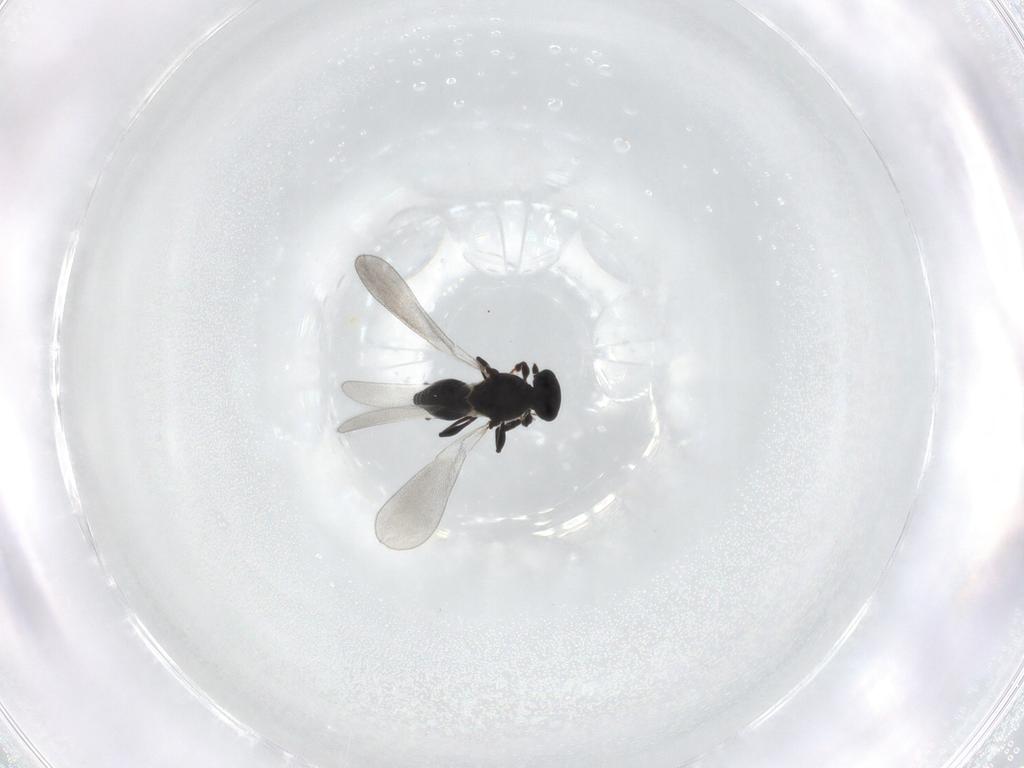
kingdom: Animalia
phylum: Arthropoda
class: Insecta
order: Hymenoptera
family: Platygastridae
